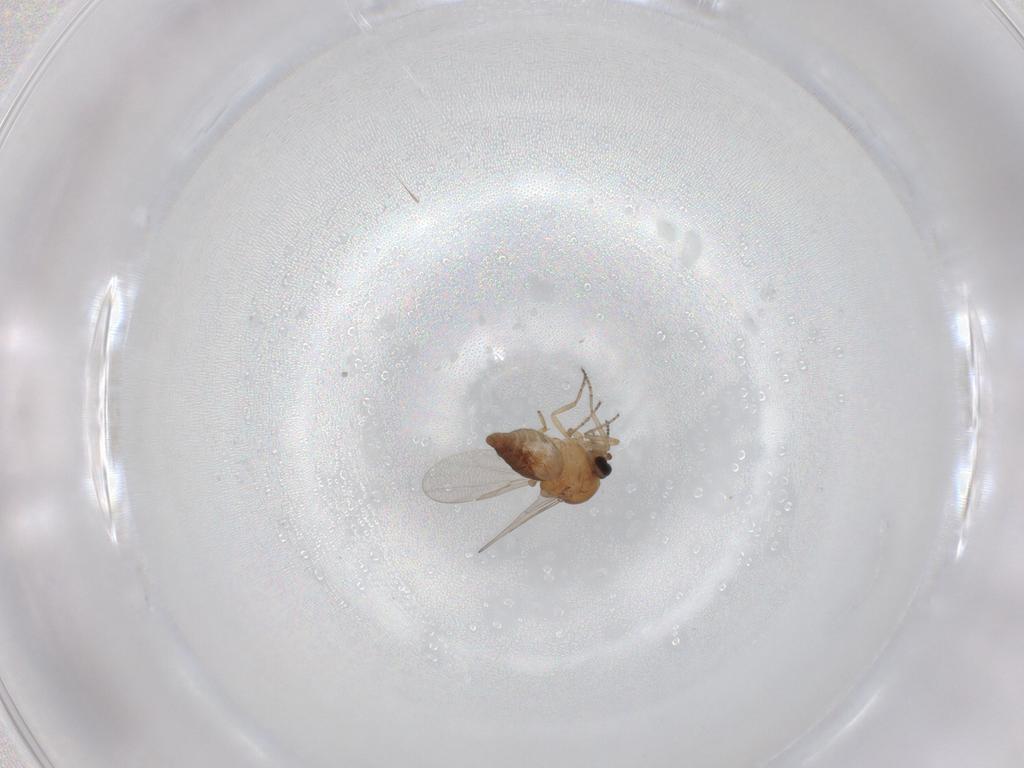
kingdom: Animalia
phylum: Arthropoda
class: Insecta
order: Diptera
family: Ceratopogonidae
